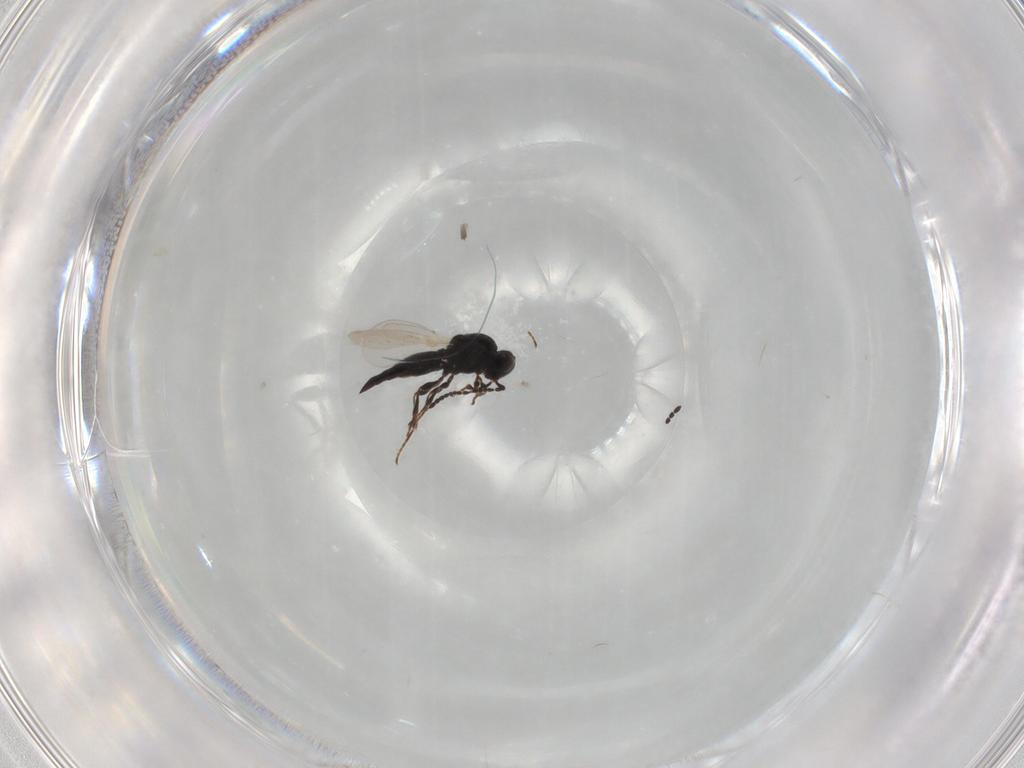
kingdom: Animalia
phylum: Arthropoda
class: Insecta
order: Hymenoptera
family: Platygastridae
